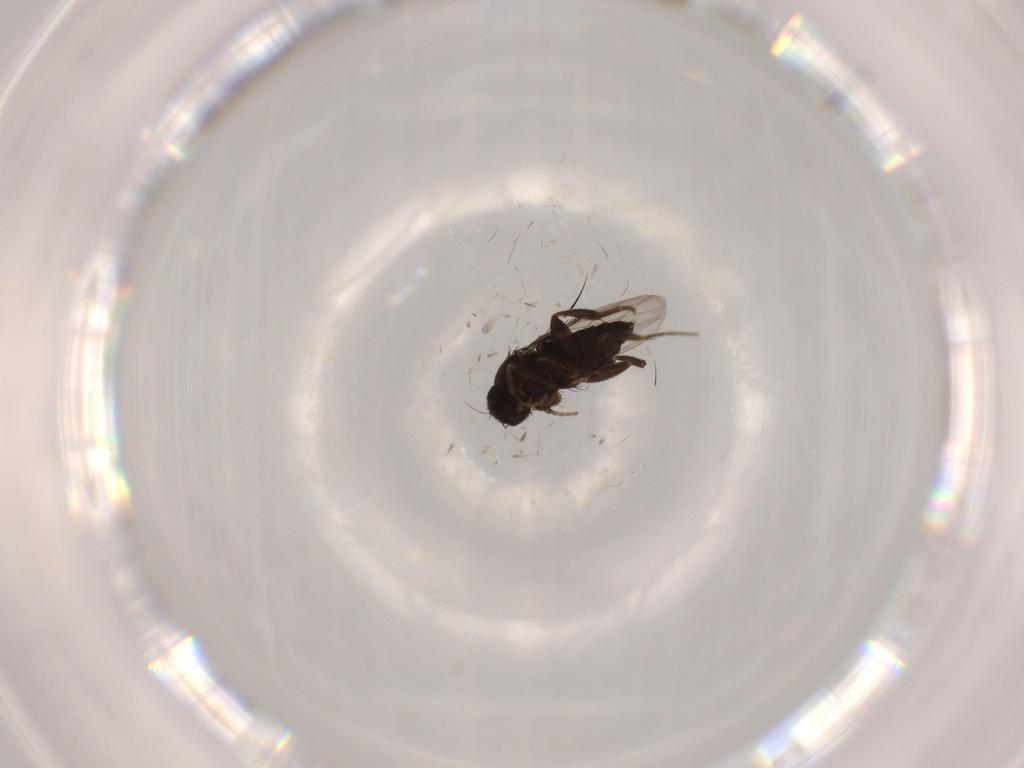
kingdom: Animalia
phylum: Arthropoda
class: Insecta
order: Diptera
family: Phoridae
